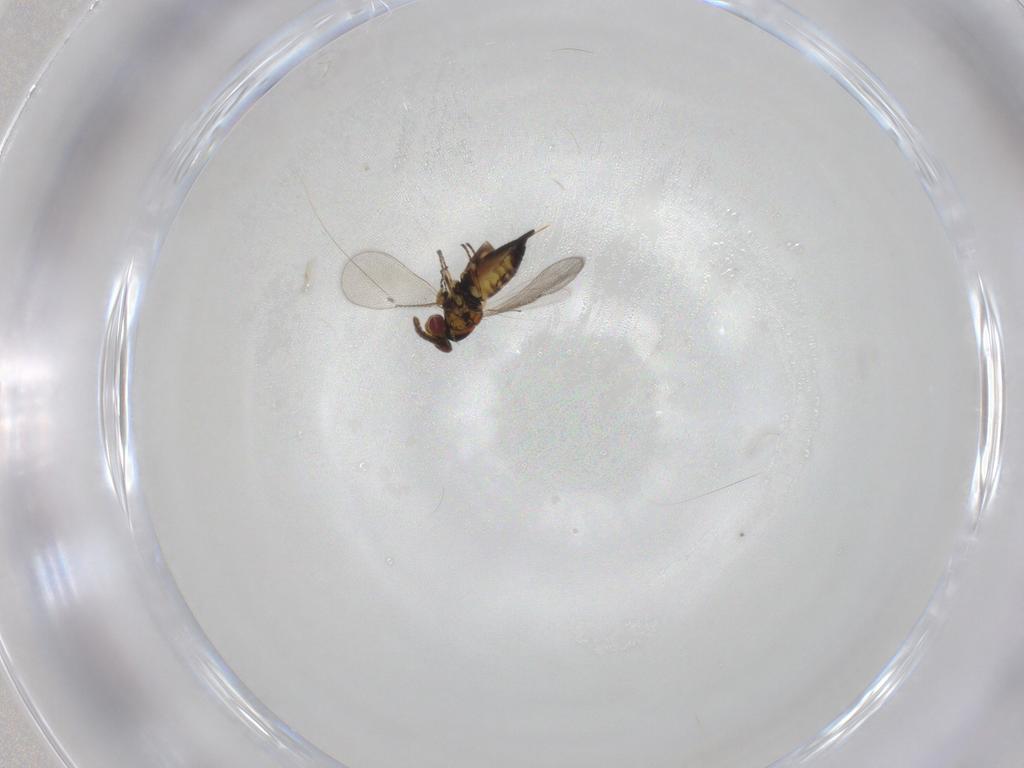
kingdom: Animalia
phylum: Arthropoda
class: Insecta
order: Hymenoptera
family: Eulophidae
